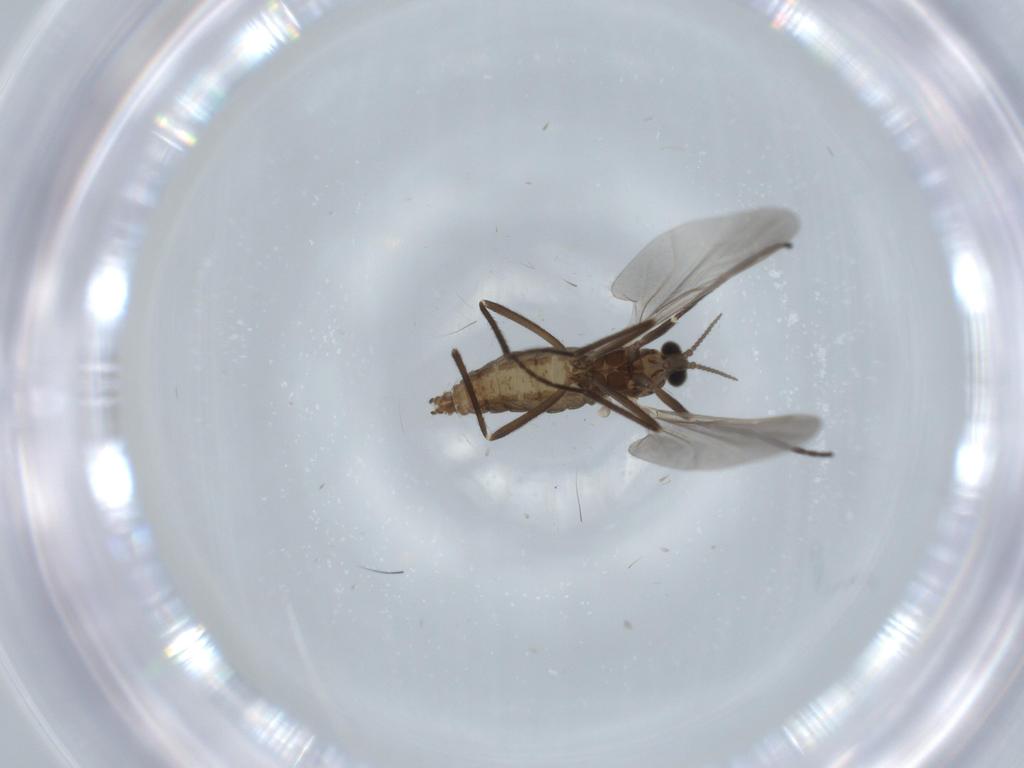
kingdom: Animalia
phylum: Arthropoda
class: Insecta
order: Diptera
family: Cecidomyiidae
